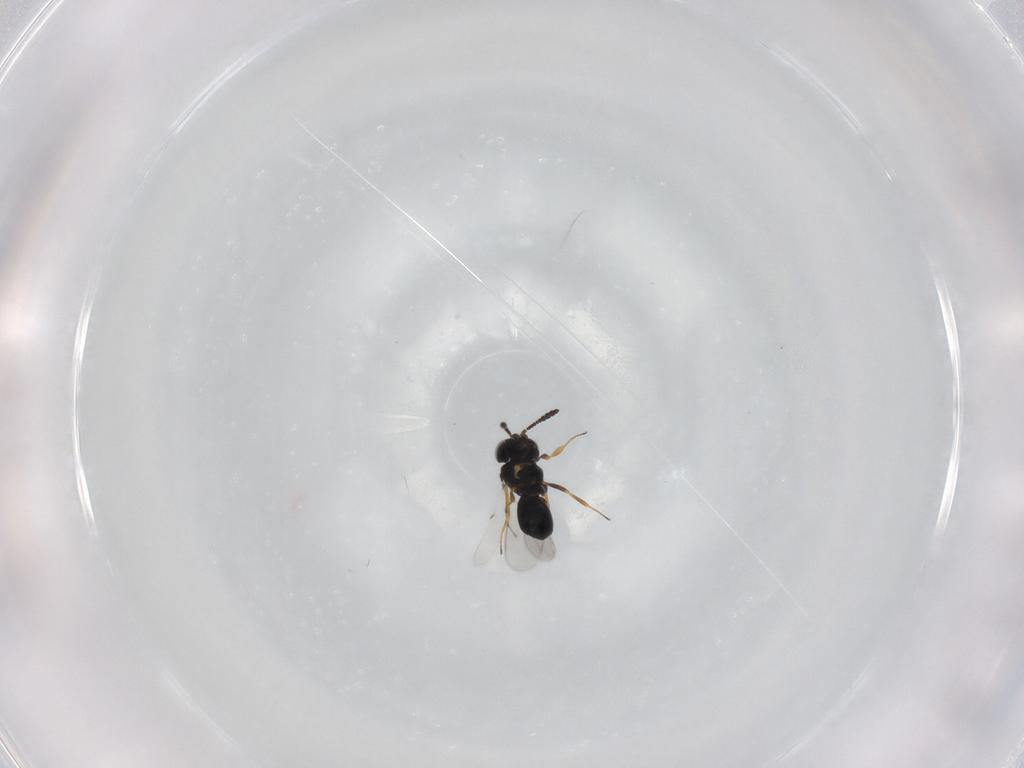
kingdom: Animalia
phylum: Arthropoda
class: Insecta
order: Hymenoptera
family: Scelionidae
